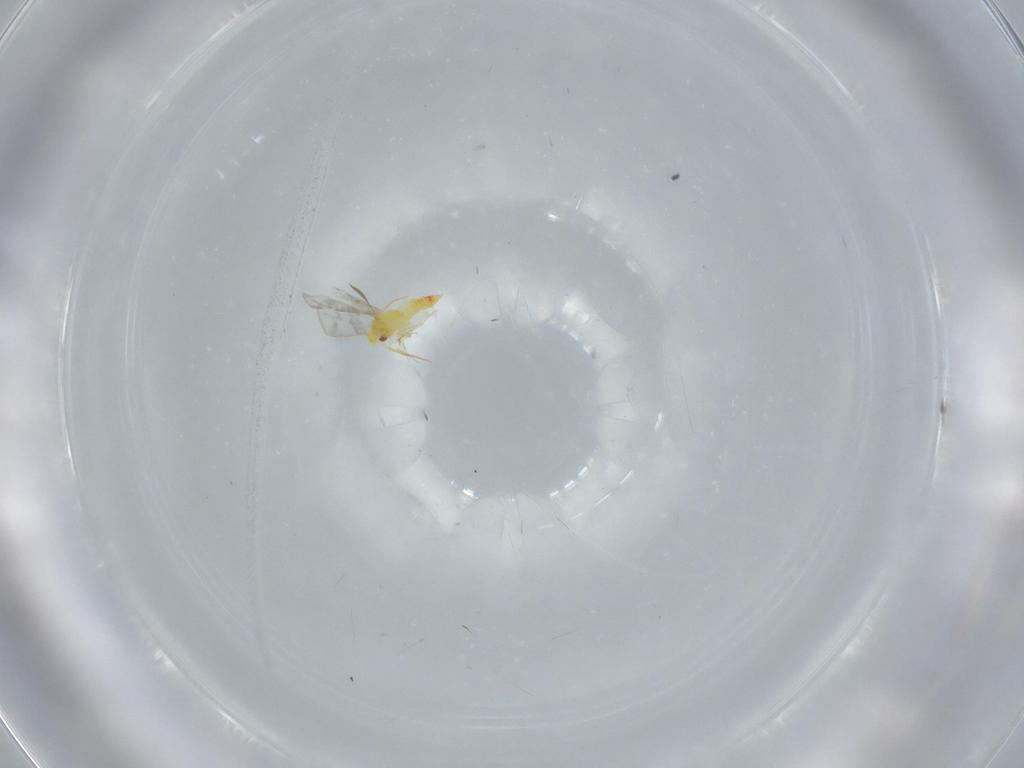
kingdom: Animalia
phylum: Arthropoda
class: Insecta
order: Hemiptera
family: Aleyrodidae
